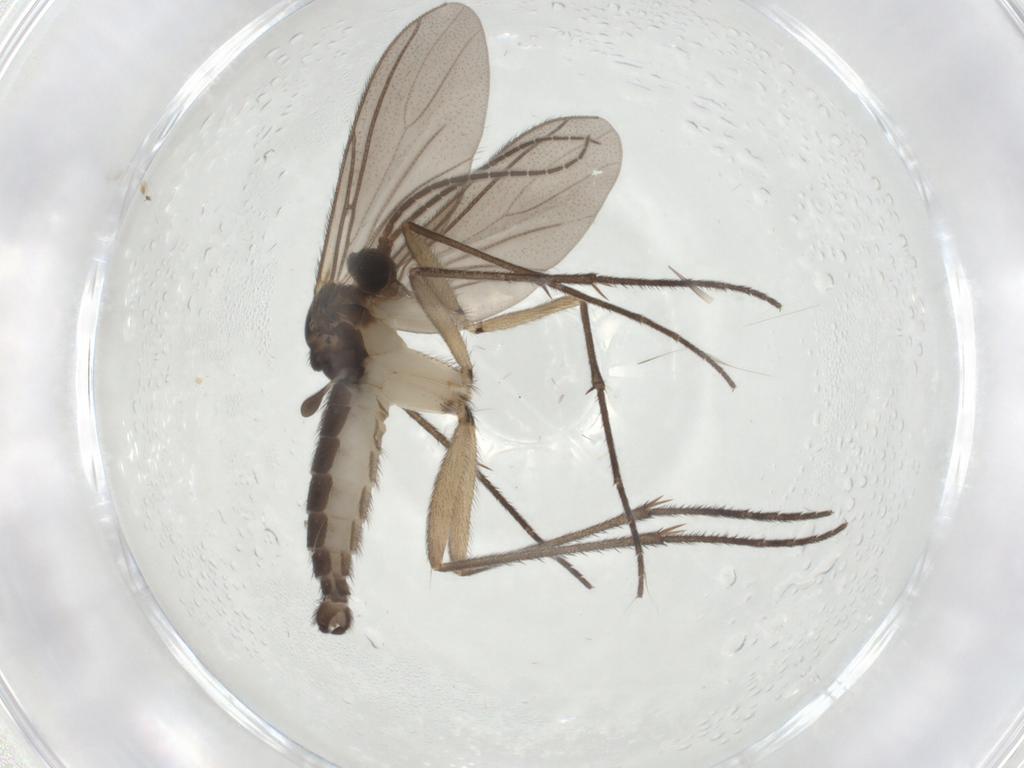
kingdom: Animalia
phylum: Arthropoda
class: Insecta
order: Diptera
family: Sciaridae
